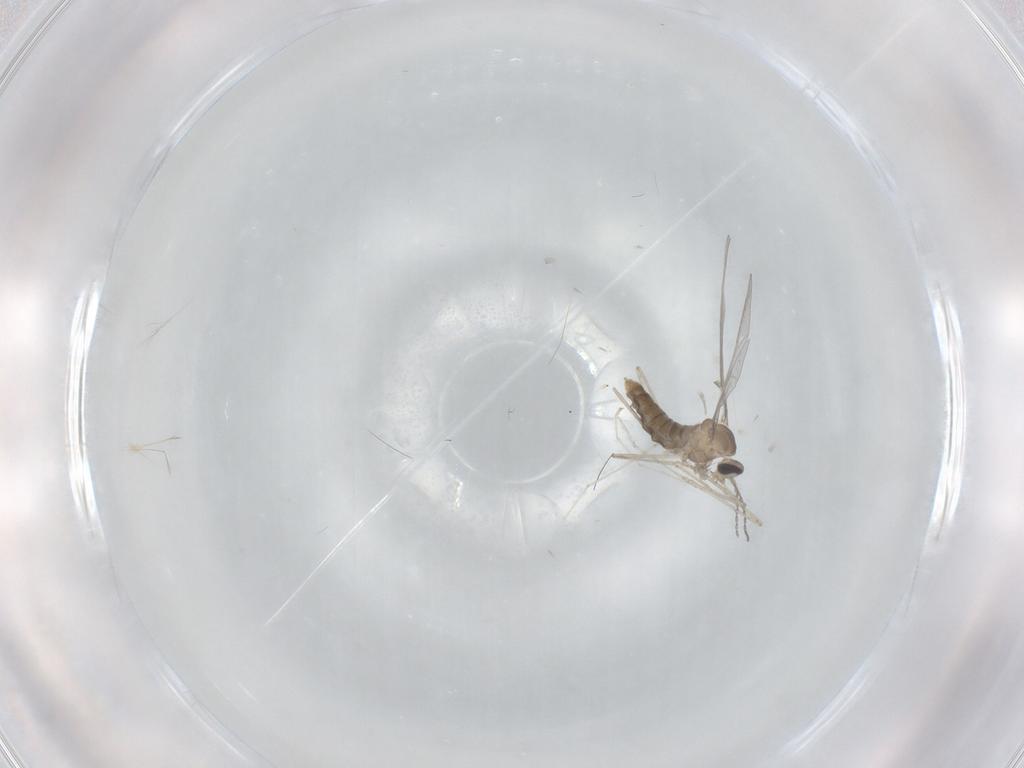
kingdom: Animalia
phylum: Arthropoda
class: Insecta
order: Diptera
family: Cecidomyiidae
